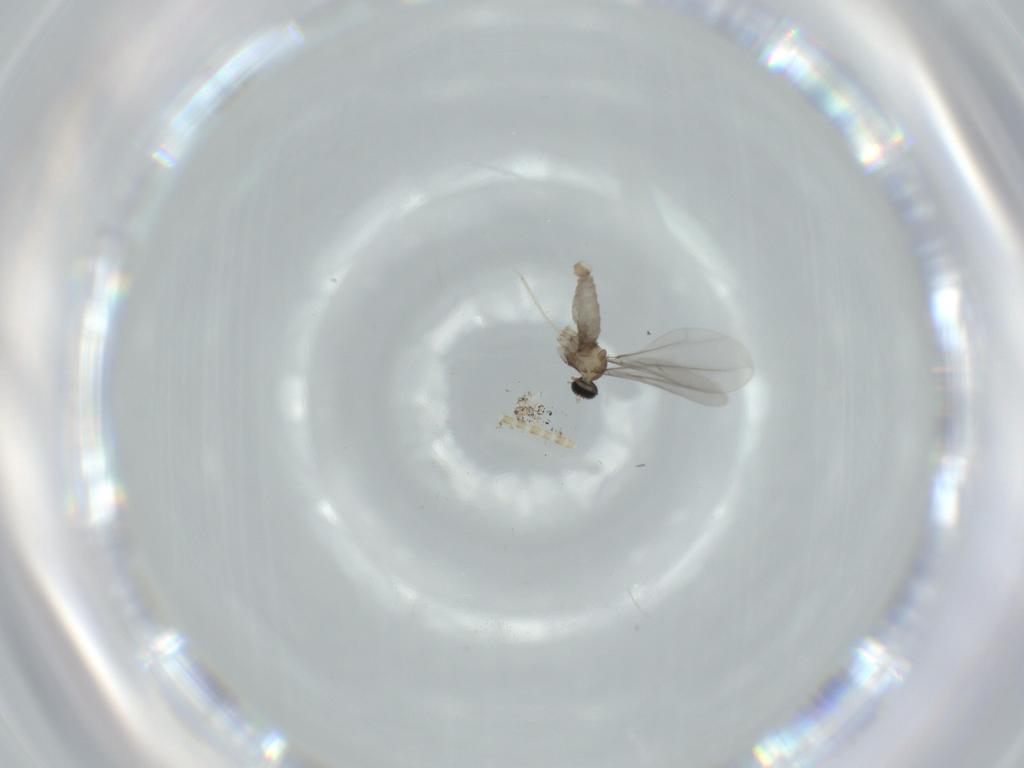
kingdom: Animalia
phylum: Arthropoda
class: Insecta
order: Diptera
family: Cecidomyiidae
